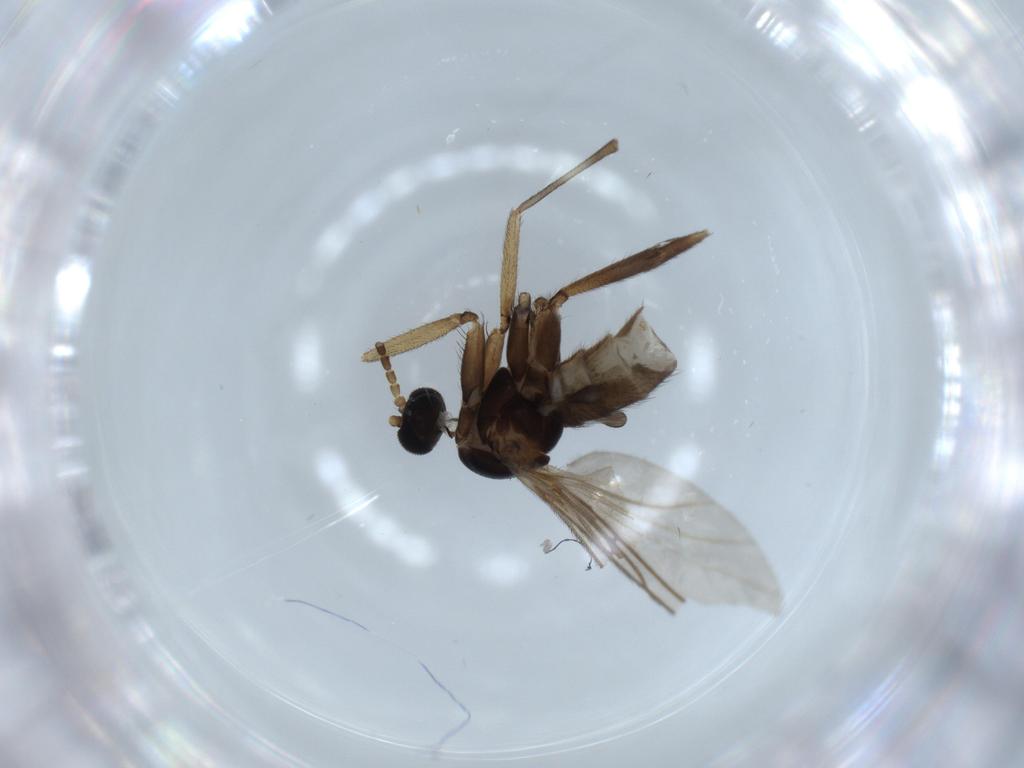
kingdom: Animalia
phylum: Arthropoda
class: Insecta
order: Diptera
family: Sciaridae
